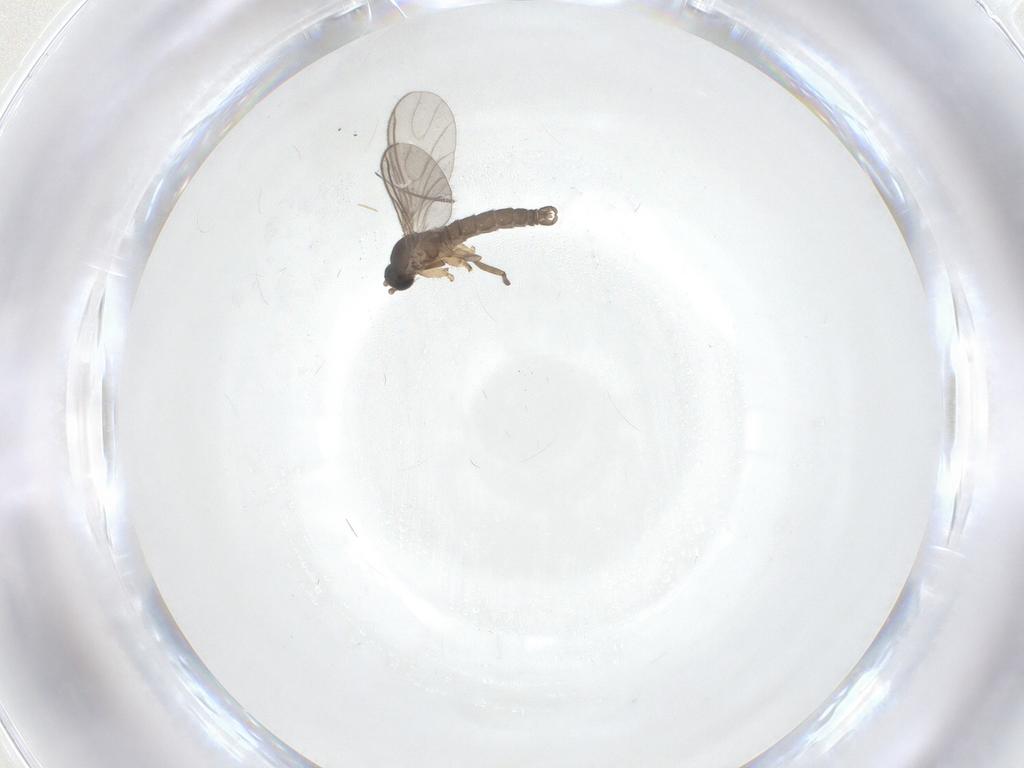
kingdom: Animalia
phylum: Arthropoda
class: Insecta
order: Diptera
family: Sciaridae
